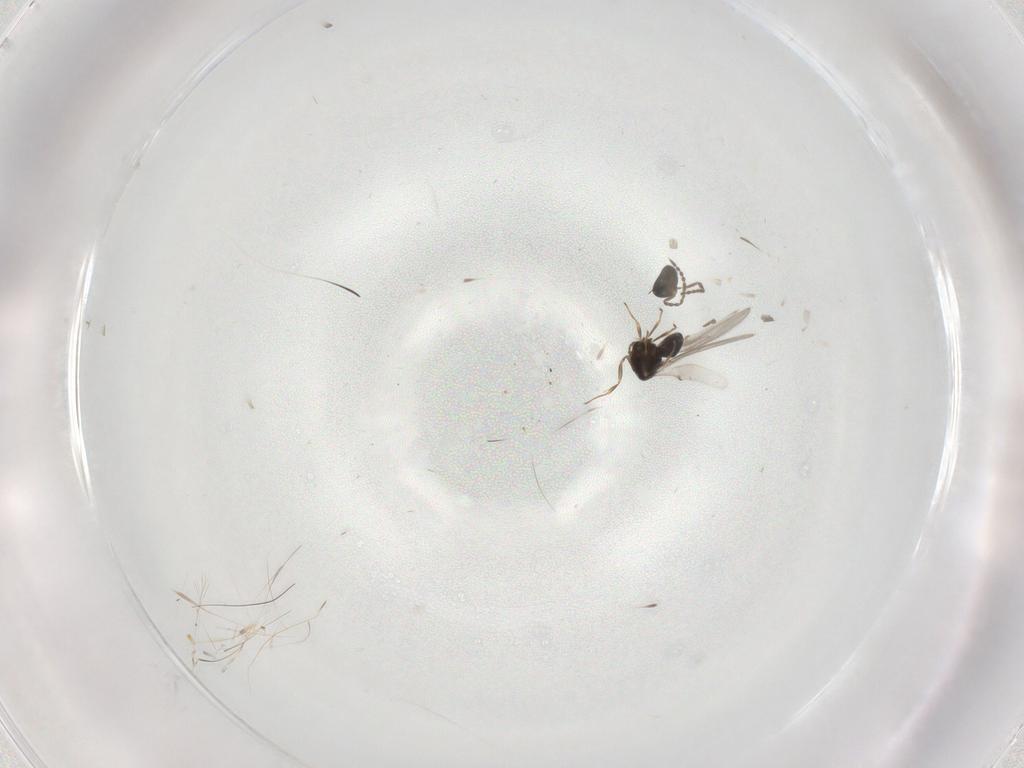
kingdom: Animalia
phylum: Arthropoda
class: Insecta
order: Hymenoptera
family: Scelionidae
